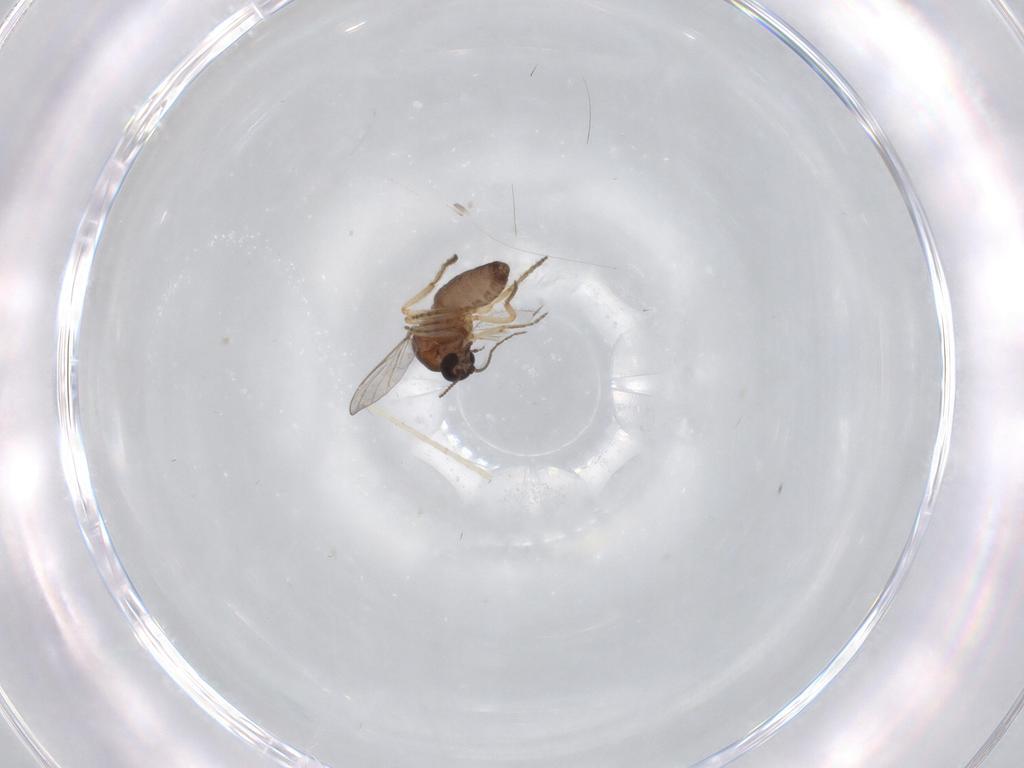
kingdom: Animalia
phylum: Arthropoda
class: Insecta
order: Diptera
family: Ceratopogonidae
